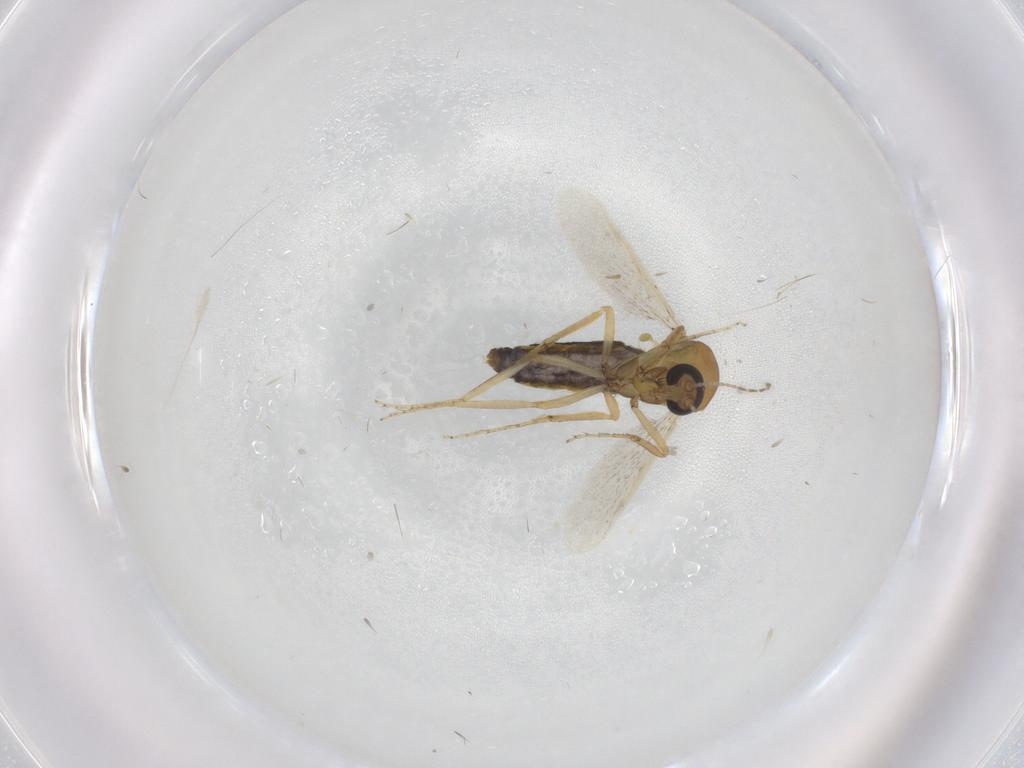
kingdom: Animalia
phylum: Arthropoda
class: Insecta
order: Diptera
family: Ceratopogonidae
